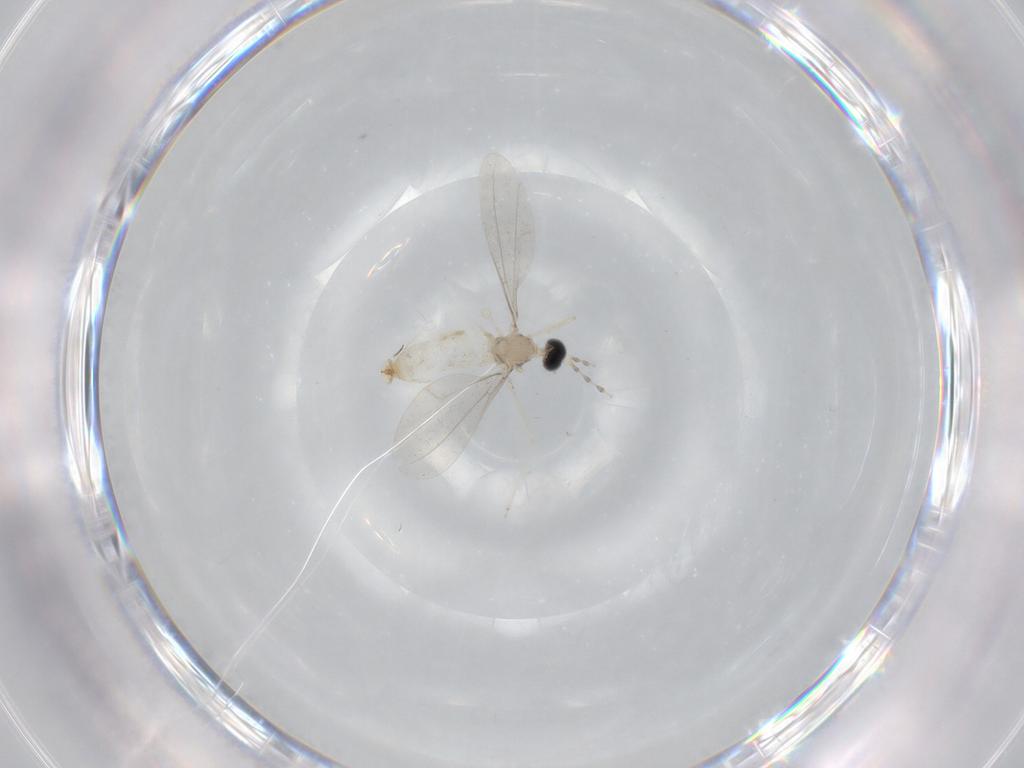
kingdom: Animalia
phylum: Arthropoda
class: Insecta
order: Diptera
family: Cecidomyiidae
